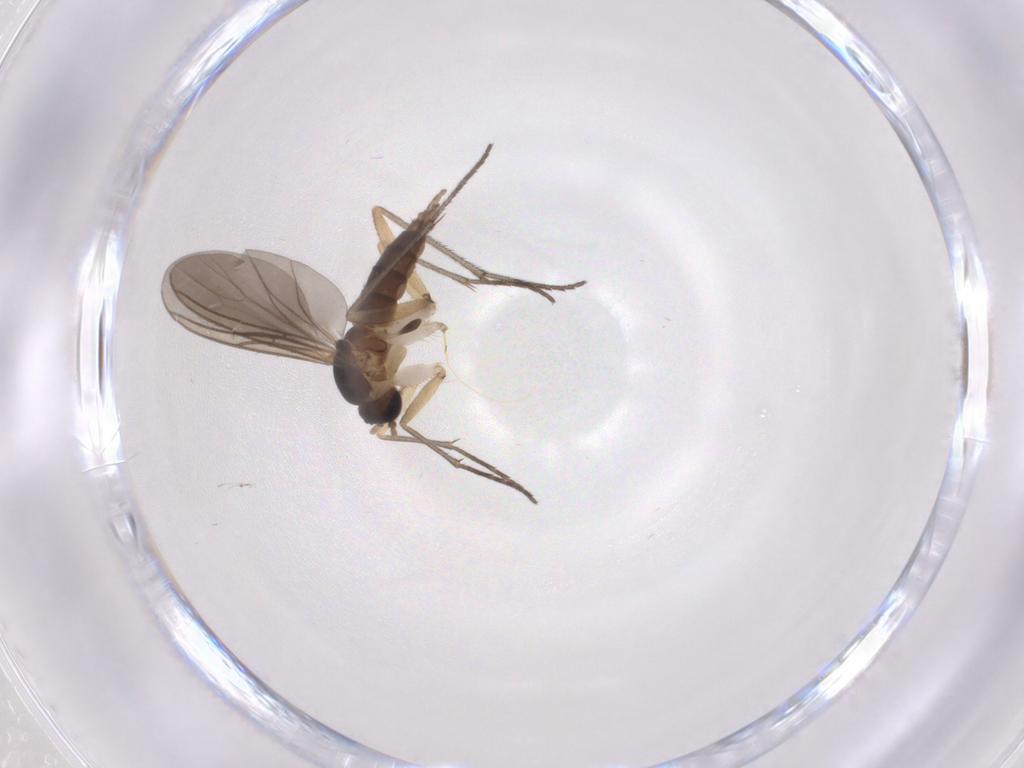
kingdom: Animalia
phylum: Arthropoda
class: Insecta
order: Diptera
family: Sciaridae
